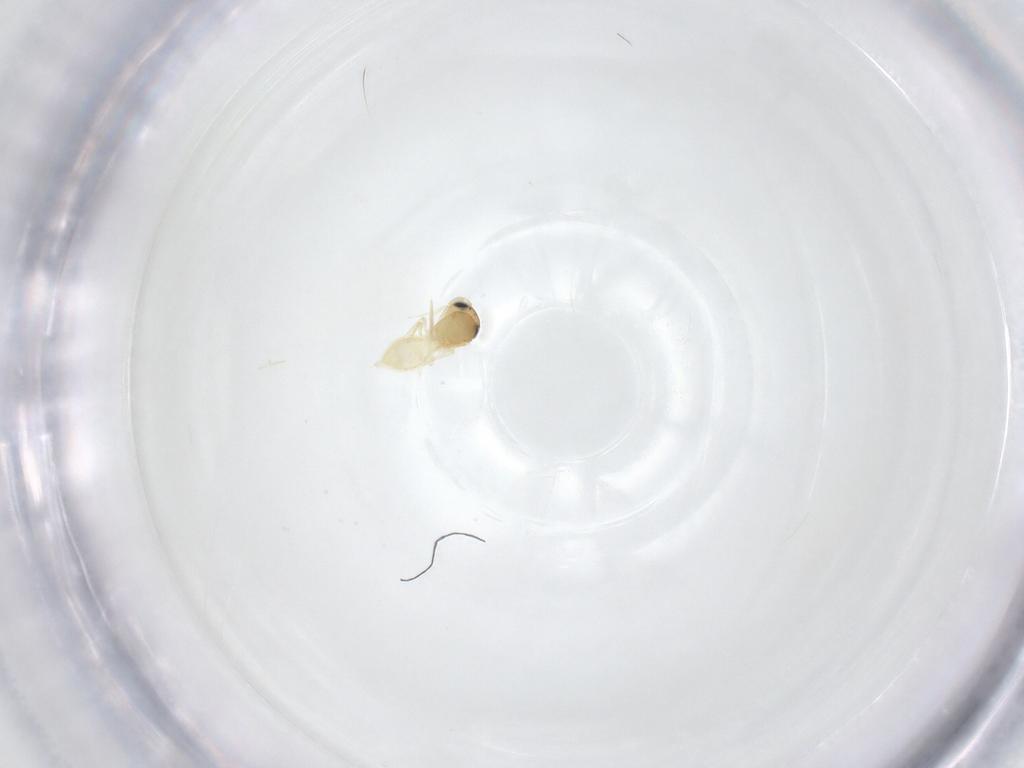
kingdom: Animalia
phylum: Arthropoda
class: Insecta
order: Hymenoptera
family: Scelionidae
